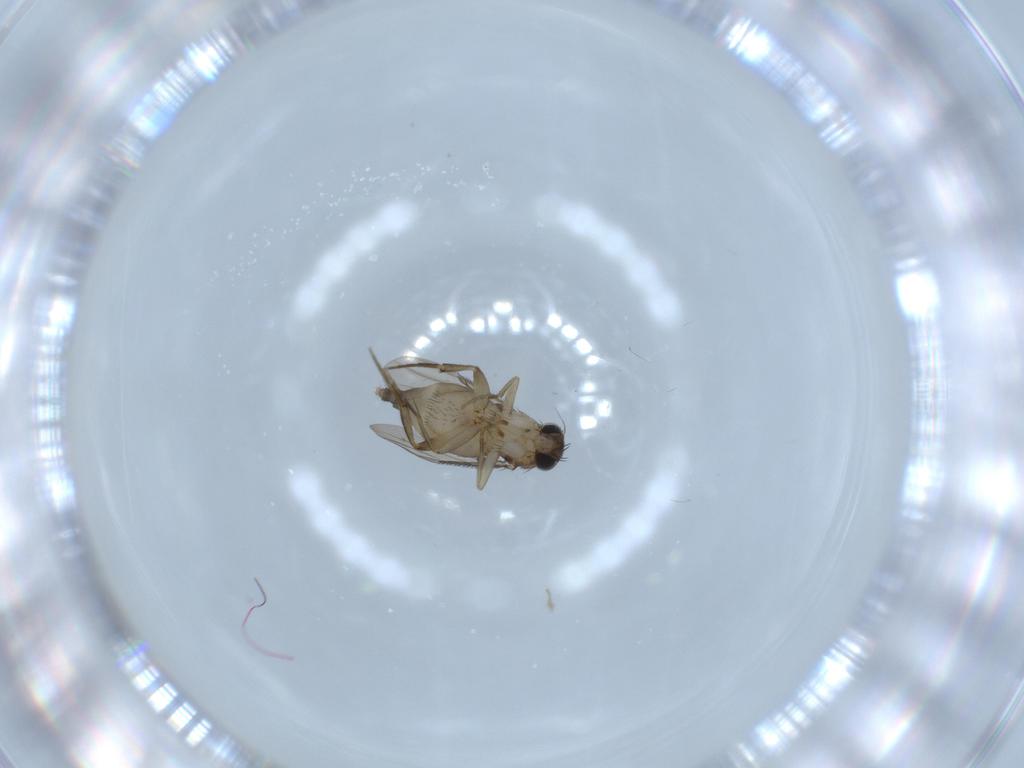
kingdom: Animalia
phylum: Arthropoda
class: Insecta
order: Diptera
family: Phoridae
